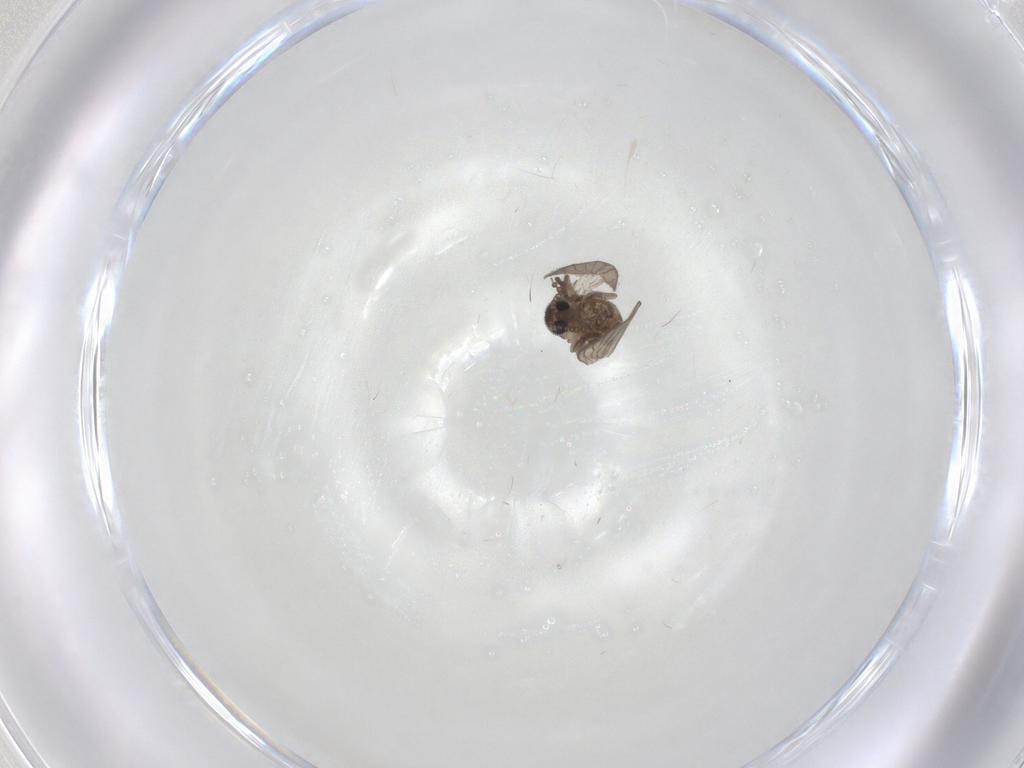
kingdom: Animalia
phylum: Arthropoda
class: Insecta
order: Diptera
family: Psychodidae
